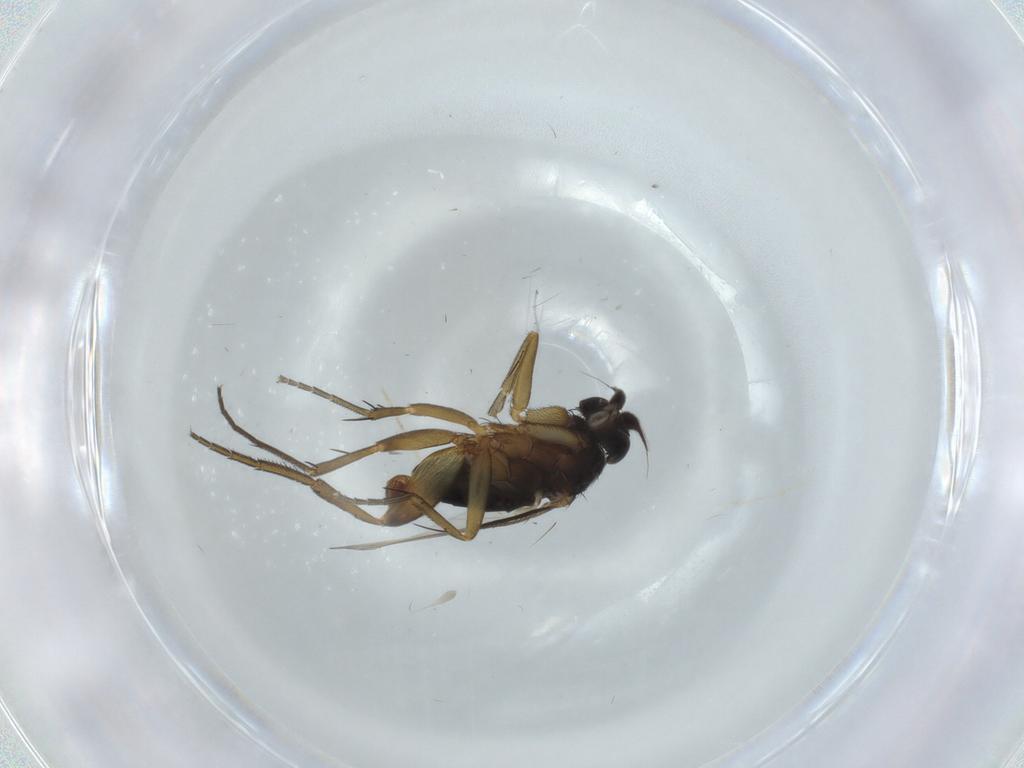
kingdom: Animalia
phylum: Arthropoda
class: Insecta
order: Diptera
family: Phoridae
